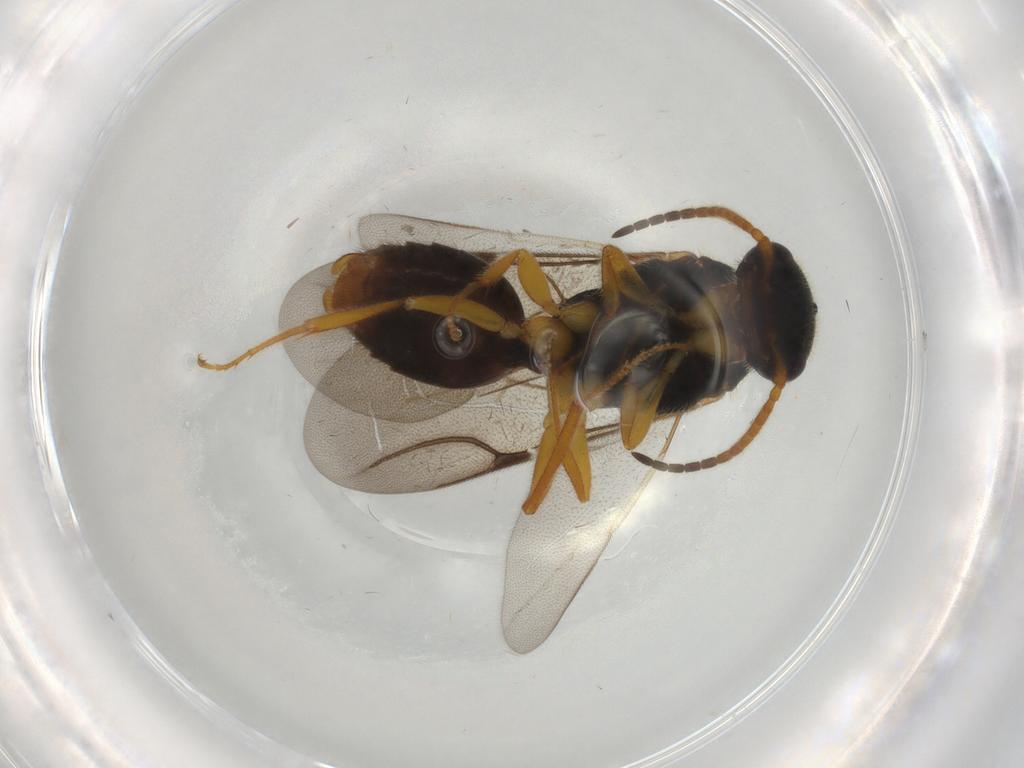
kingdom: Animalia
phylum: Arthropoda
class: Insecta
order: Hymenoptera
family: Bethylidae
